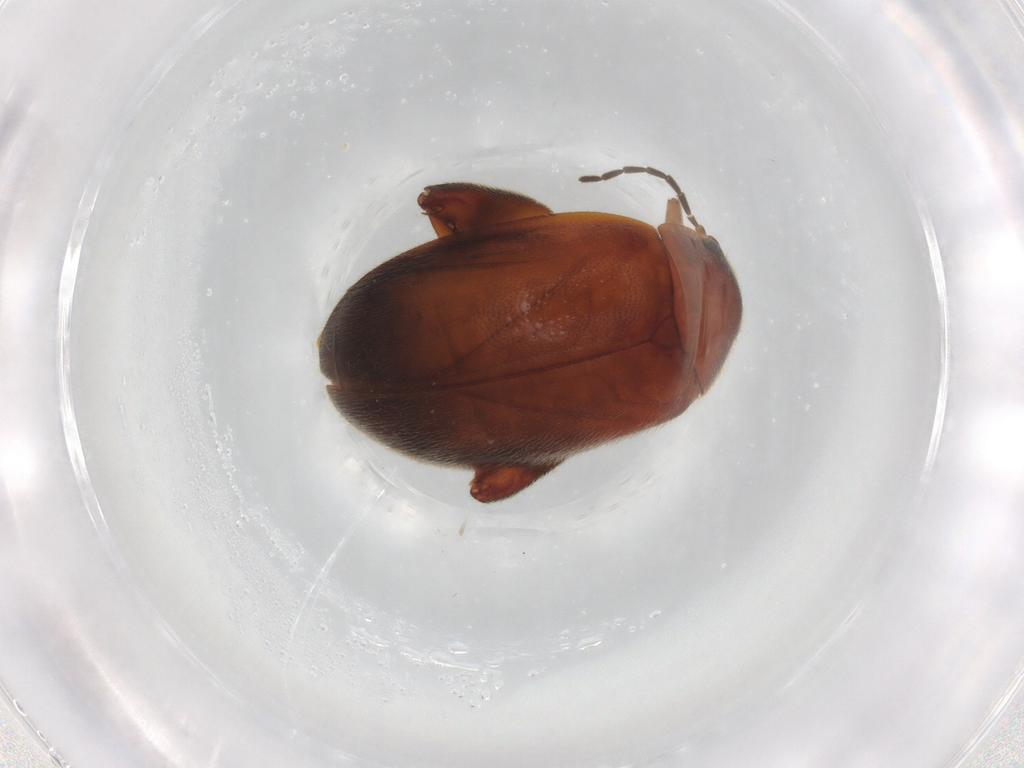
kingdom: Animalia
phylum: Arthropoda
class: Insecta
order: Coleoptera
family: Scirtidae
